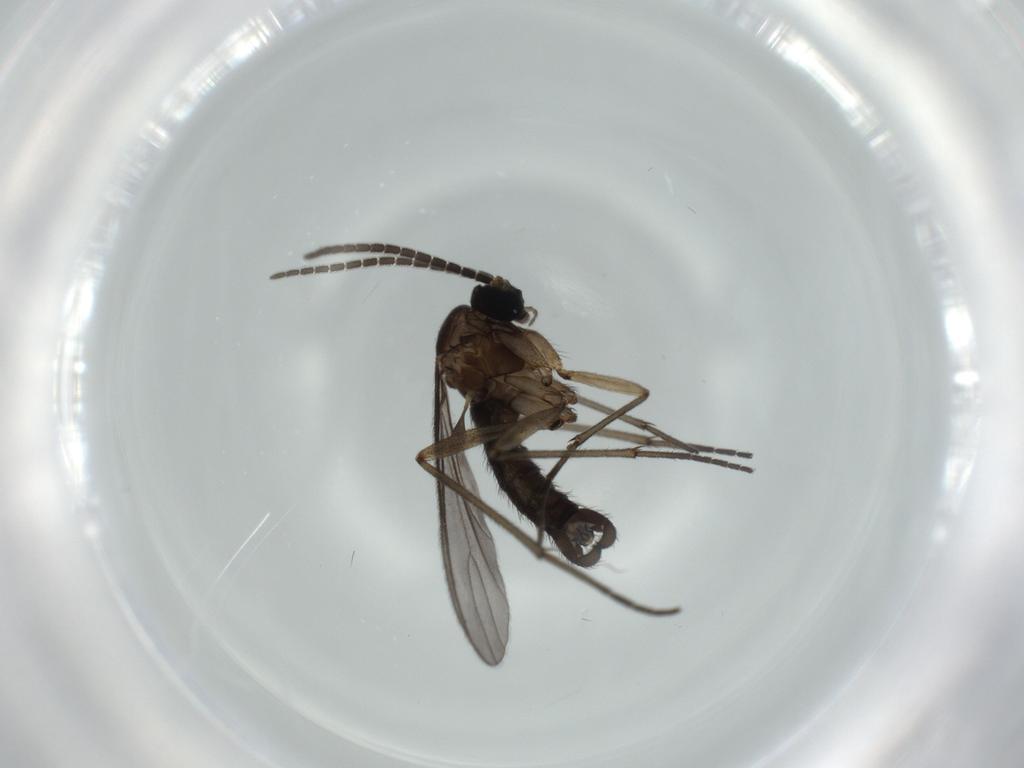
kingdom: Animalia
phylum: Arthropoda
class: Insecta
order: Diptera
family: Sciaridae
